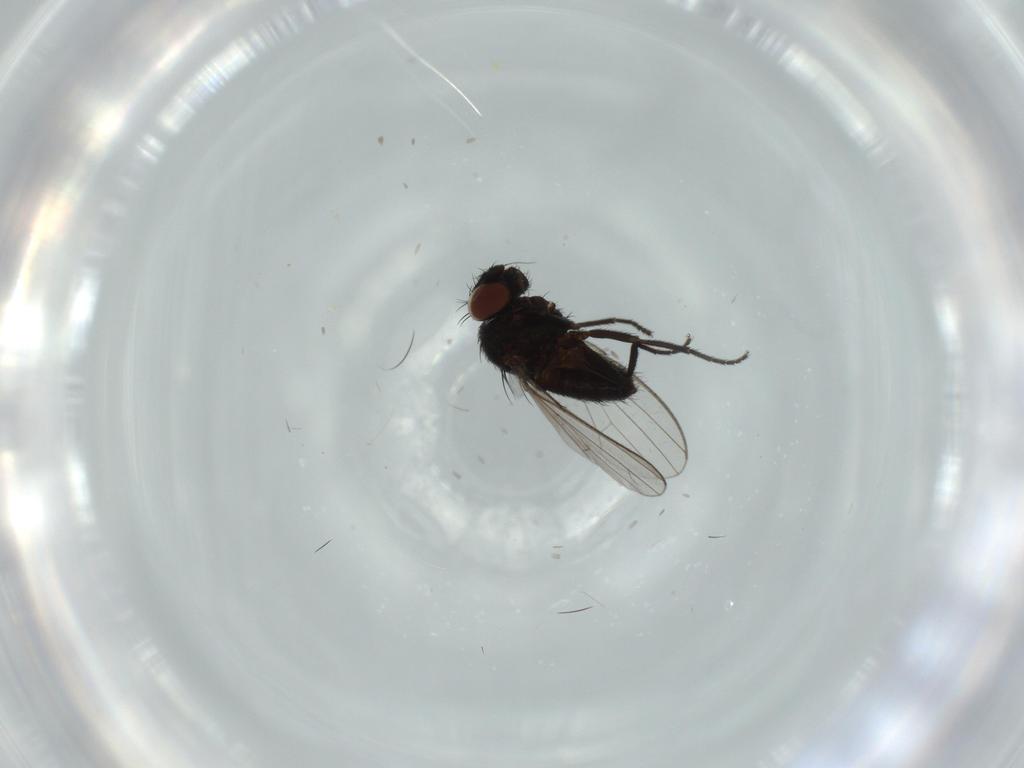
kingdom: Animalia
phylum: Arthropoda
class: Insecta
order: Diptera
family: Milichiidae
